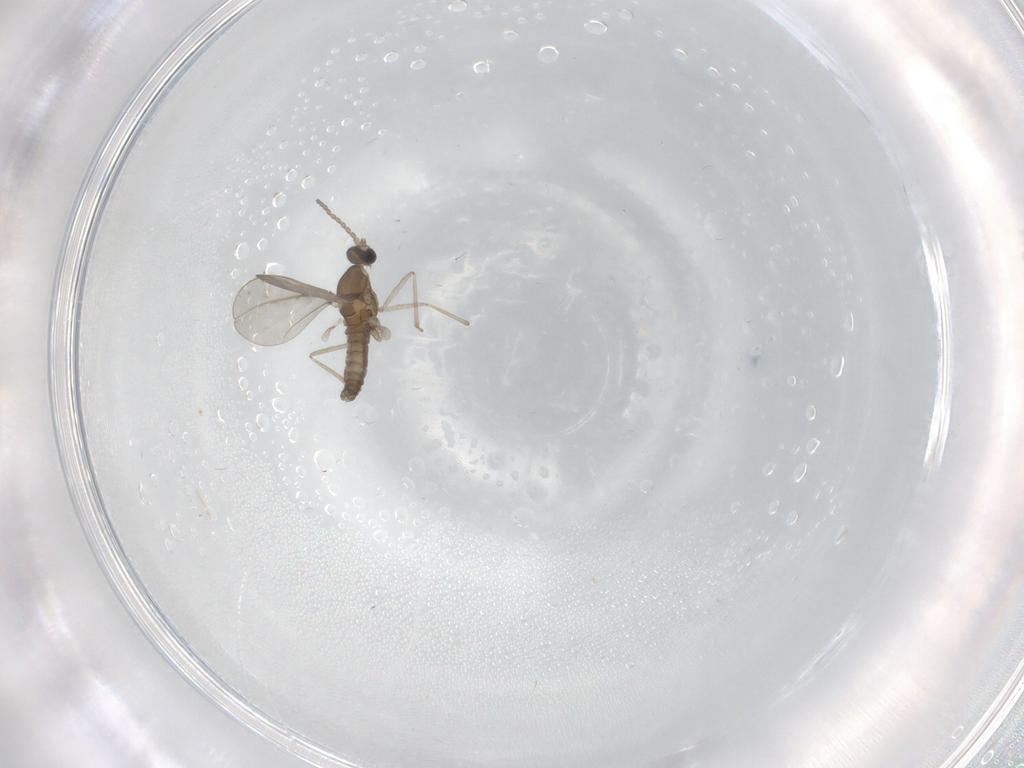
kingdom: Animalia
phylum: Arthropoda
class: Insecta
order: Diptera
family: Cecidomyiidae
